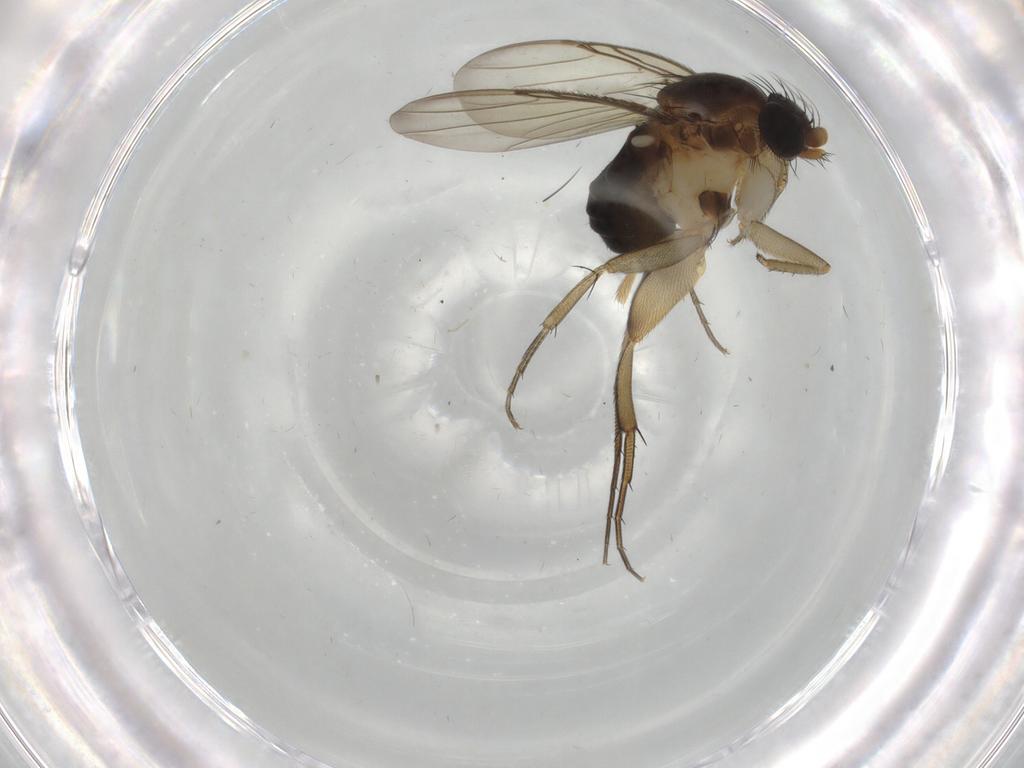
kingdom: Animalia
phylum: Arthropoda
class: Insecta
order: Diptera
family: Phoridae
